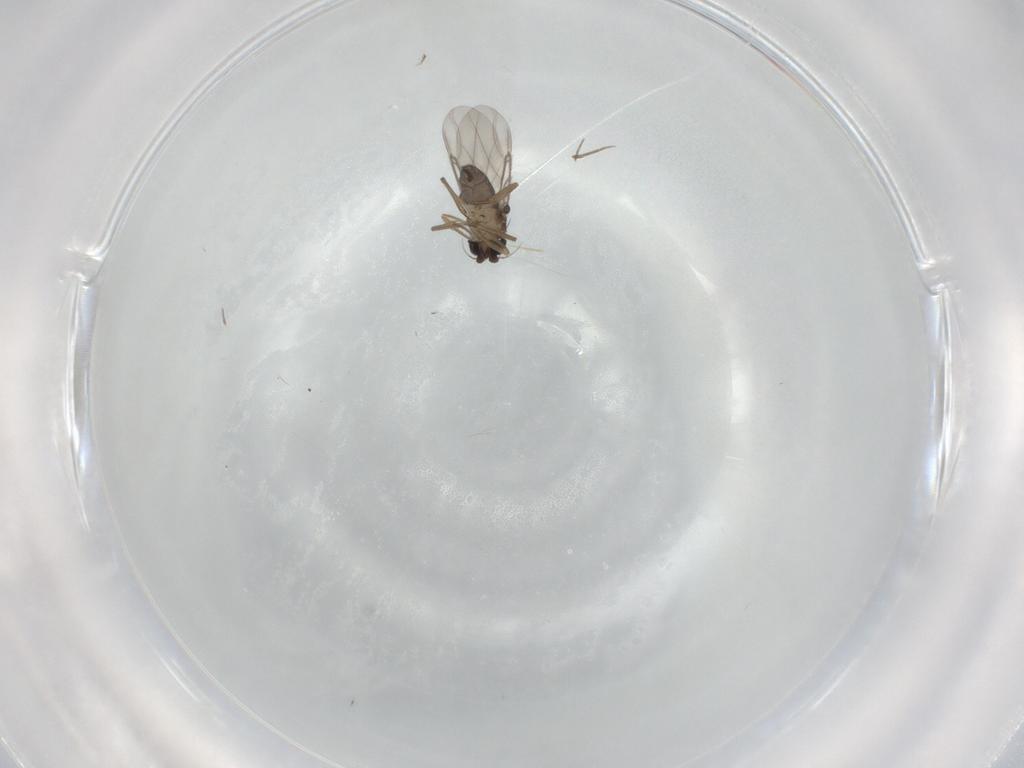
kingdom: Animalia
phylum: Arthropoda
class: Insecta
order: Diptera
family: Phoridae
